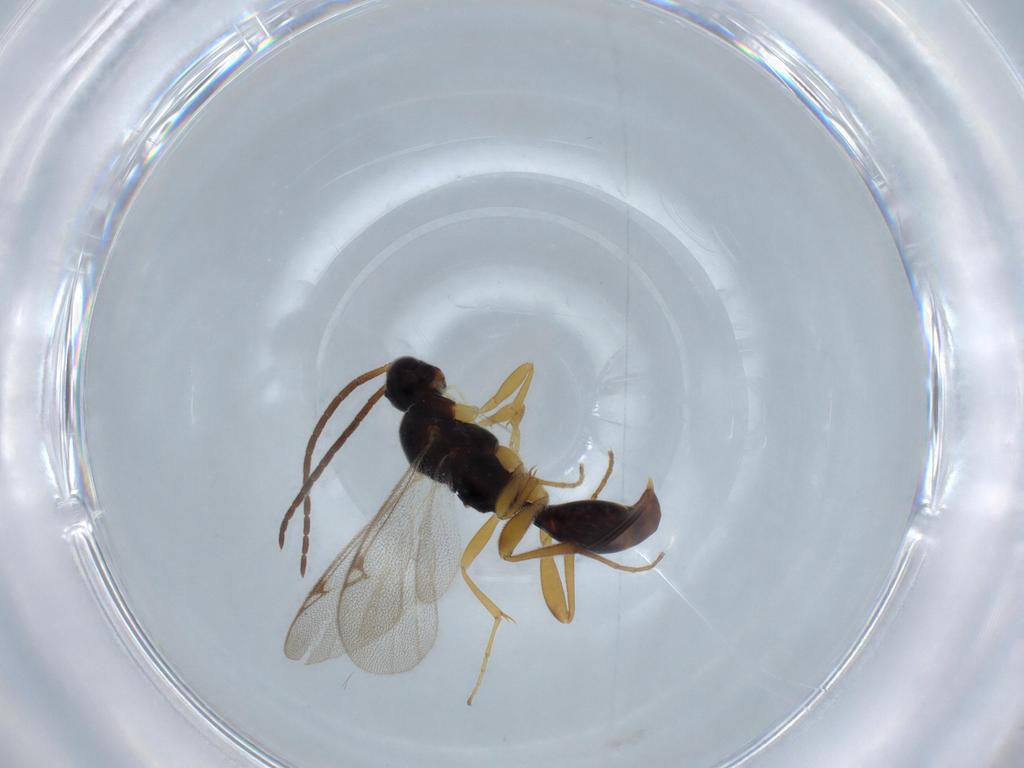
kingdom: Animalia
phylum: Arthropoda
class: Insecta
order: Hymenoptera
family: Proctotrupidae
